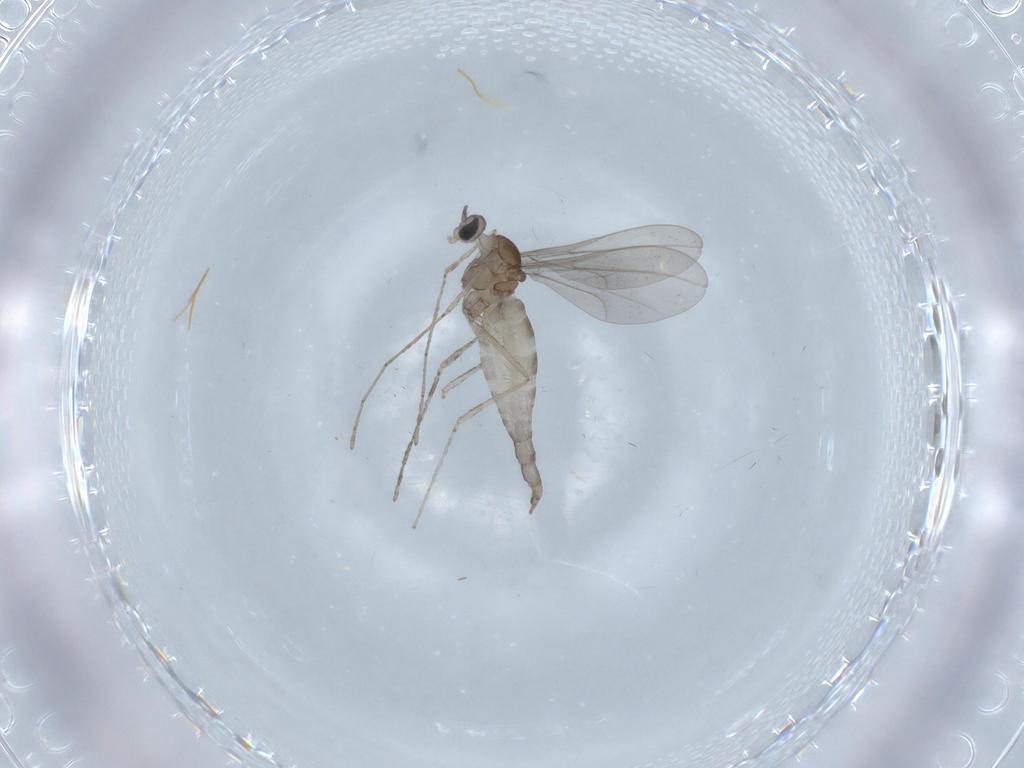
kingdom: Animalia
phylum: Arthropoda
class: Insecta
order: Diptera
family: Cecidomyiidae
